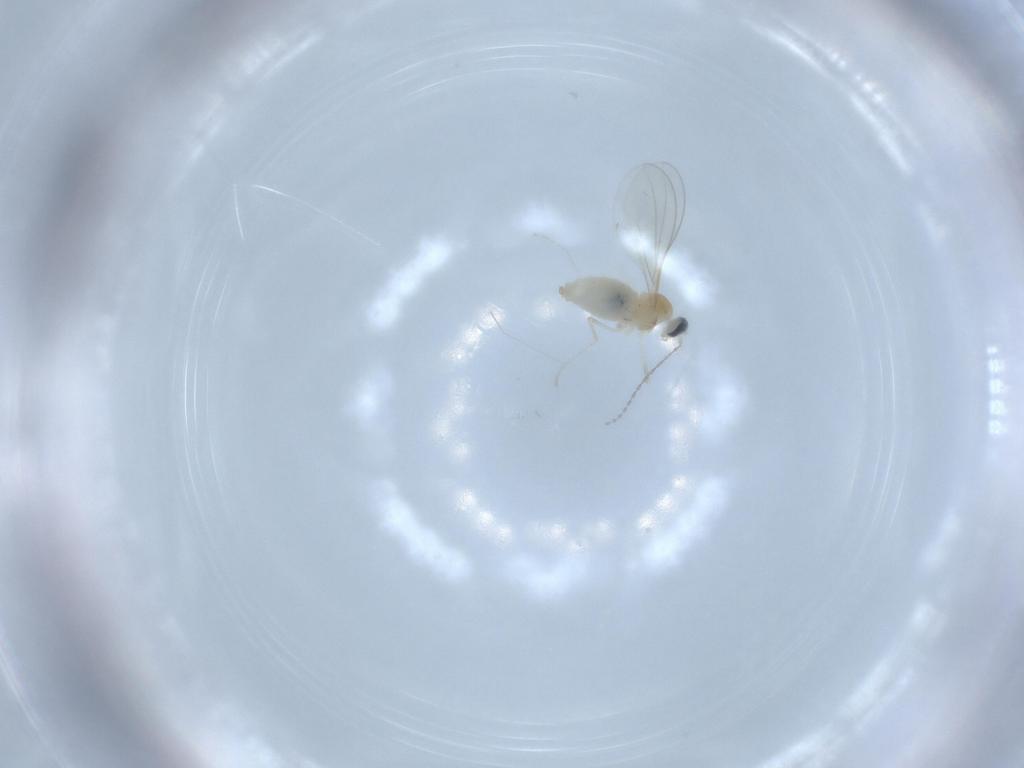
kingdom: Animalia
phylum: Arthropoda
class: Insecta
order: Diptera
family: Cecidomyiidae
